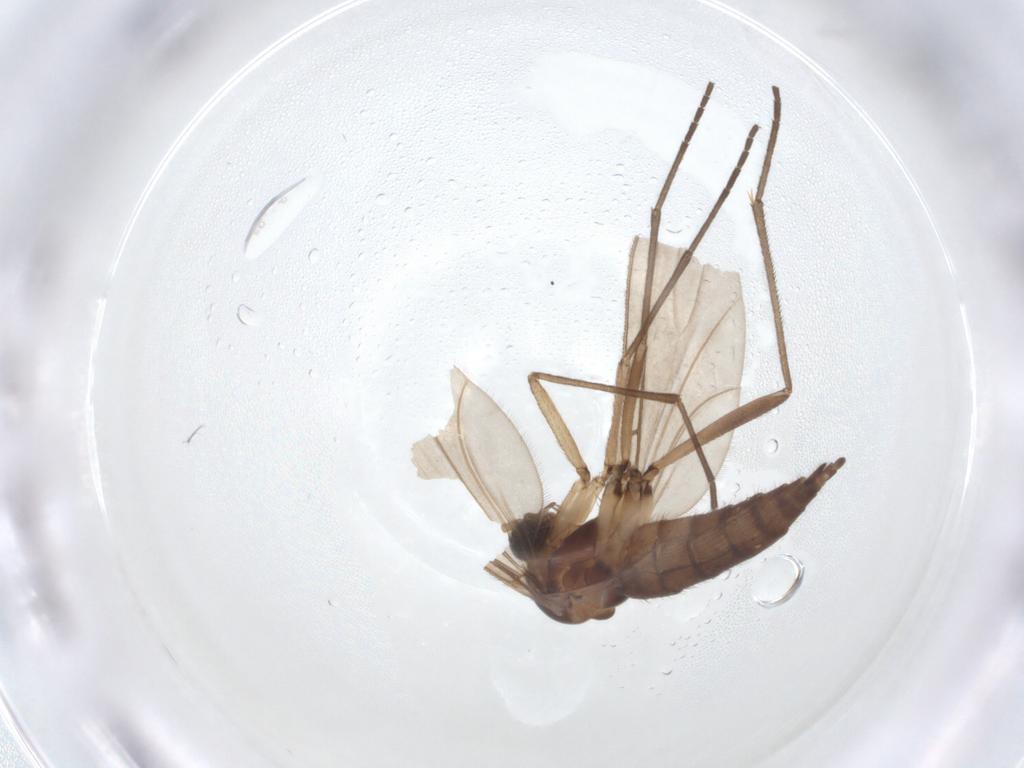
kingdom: Animalia
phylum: Arthropoda
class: Insecta
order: Diptera
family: Sciaridae
